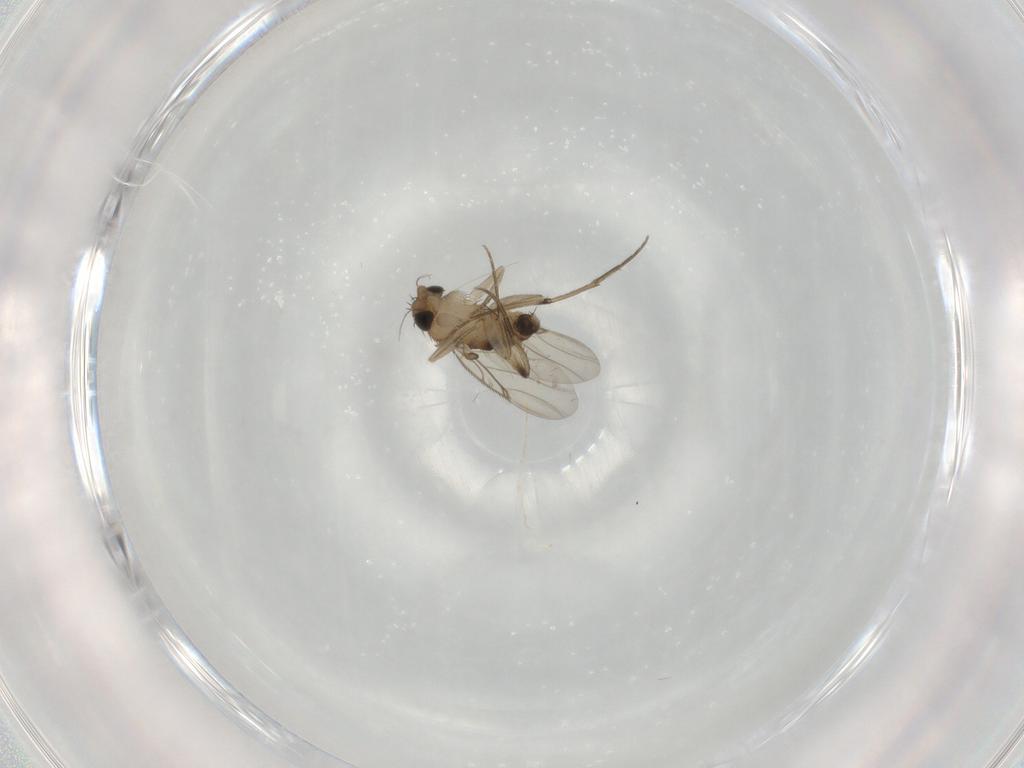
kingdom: Animalia
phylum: Arthropoda
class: Insecta
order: Diptera
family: Phoridae
